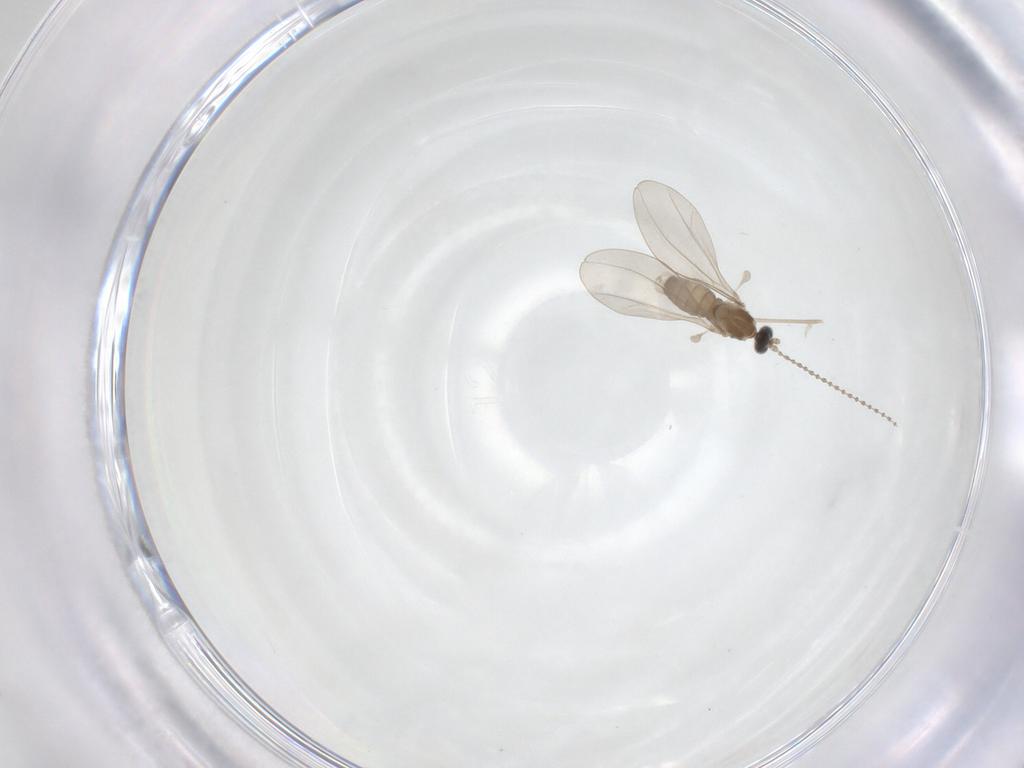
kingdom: Animalia
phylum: Arthropoda
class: Insecta
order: Diptera
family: Cecidomyiidae
